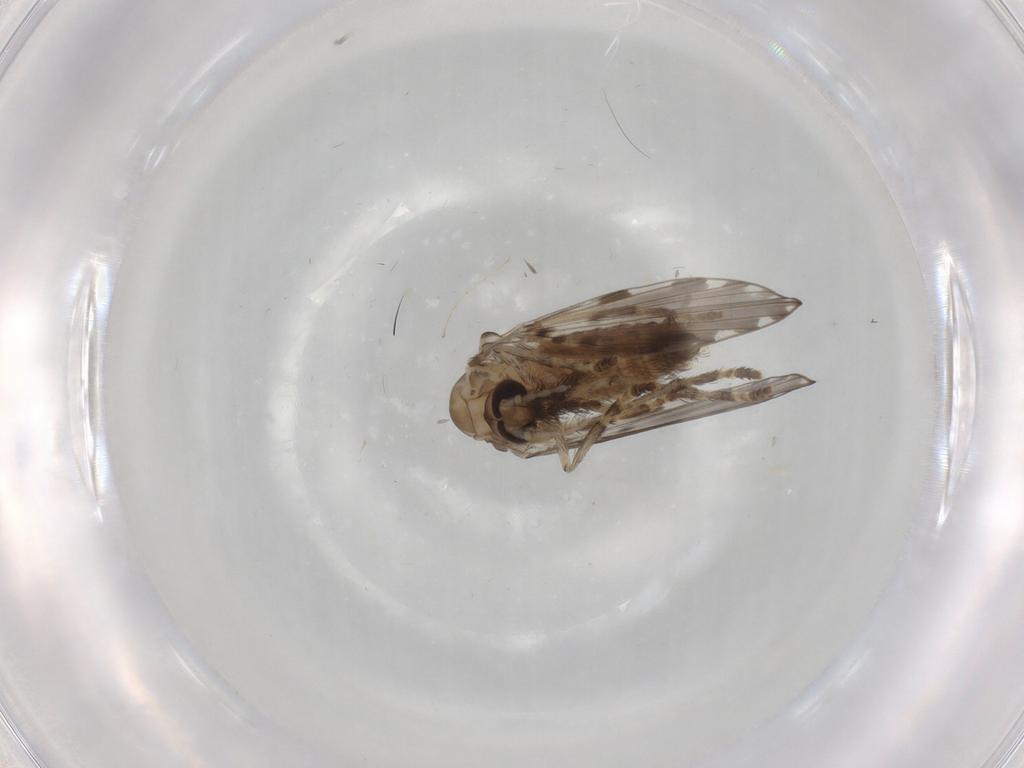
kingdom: Animalia
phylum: Arthropoda
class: Insecta
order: Diptera
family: Psychodidae
